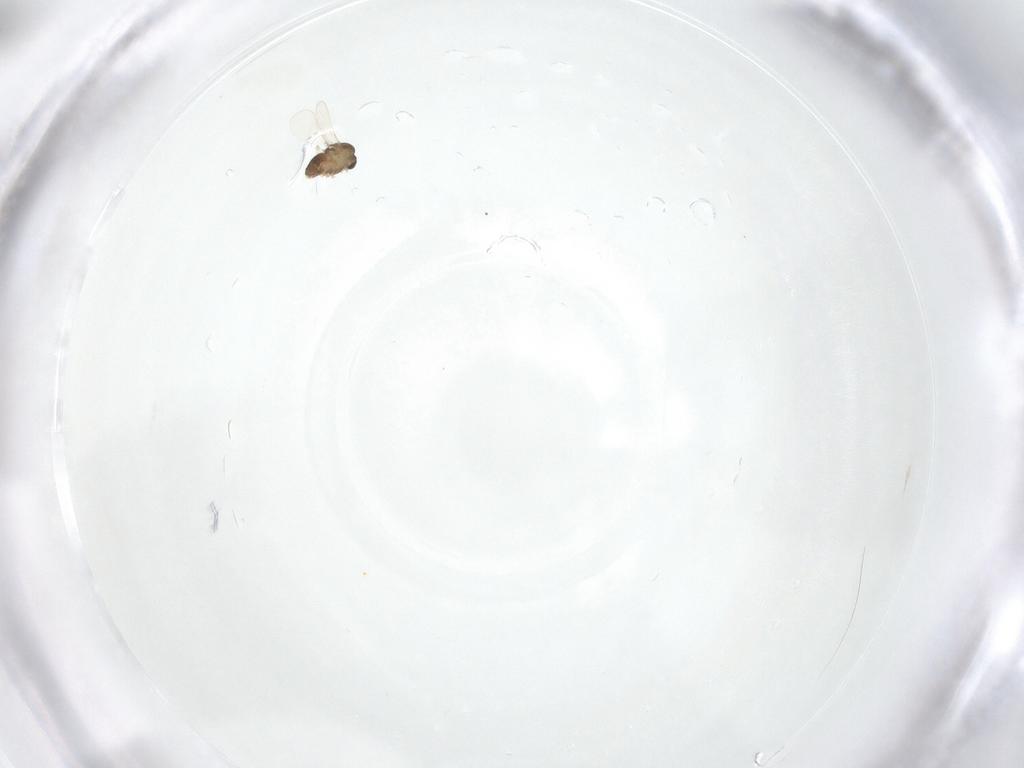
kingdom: Animalia
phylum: Arthropoda
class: Insecta
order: Diptera
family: Chironomidae
